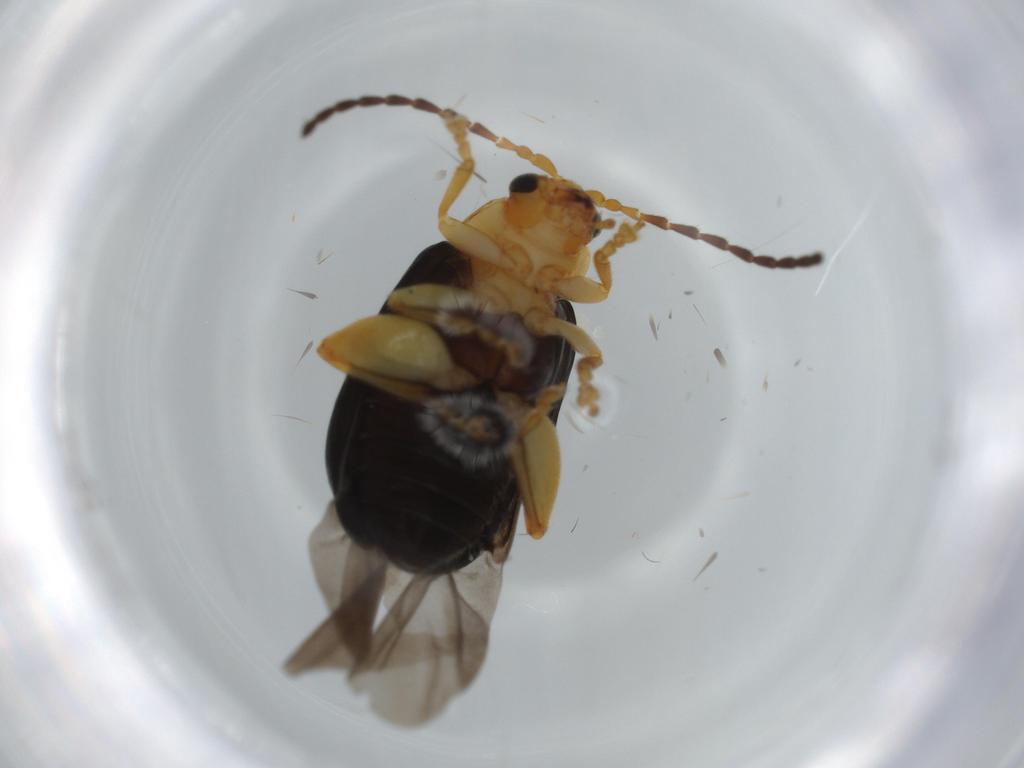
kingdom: Animalia
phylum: Arthropoda
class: Insecta
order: Coleoptera
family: Chrysomelidae
